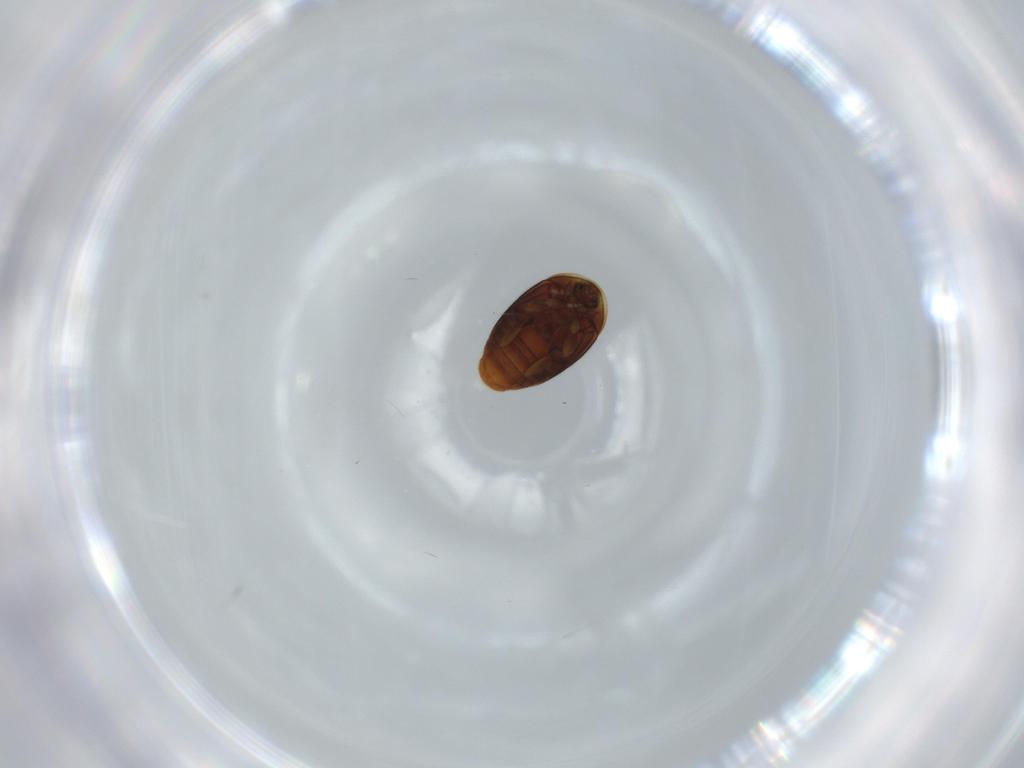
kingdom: Animalia
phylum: Arthropoda
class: Insecta
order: Coleoptera
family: Corylophidae
